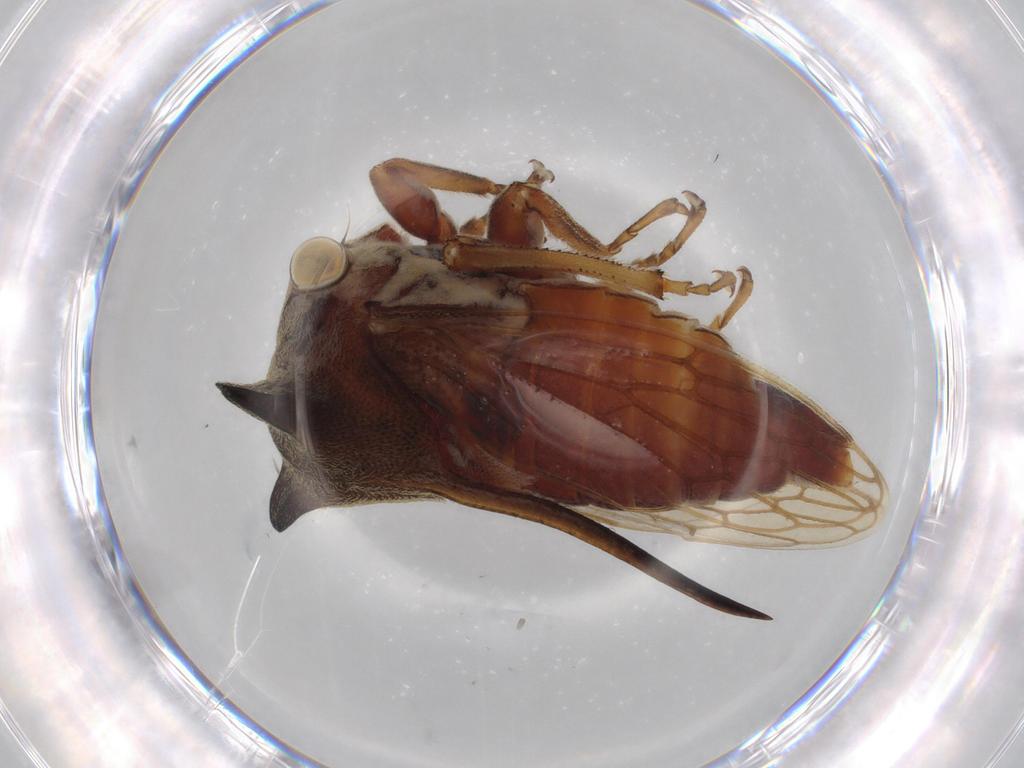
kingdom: Animalia
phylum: Arthropoda
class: Insecta
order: Hemiptera
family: Membracidae
